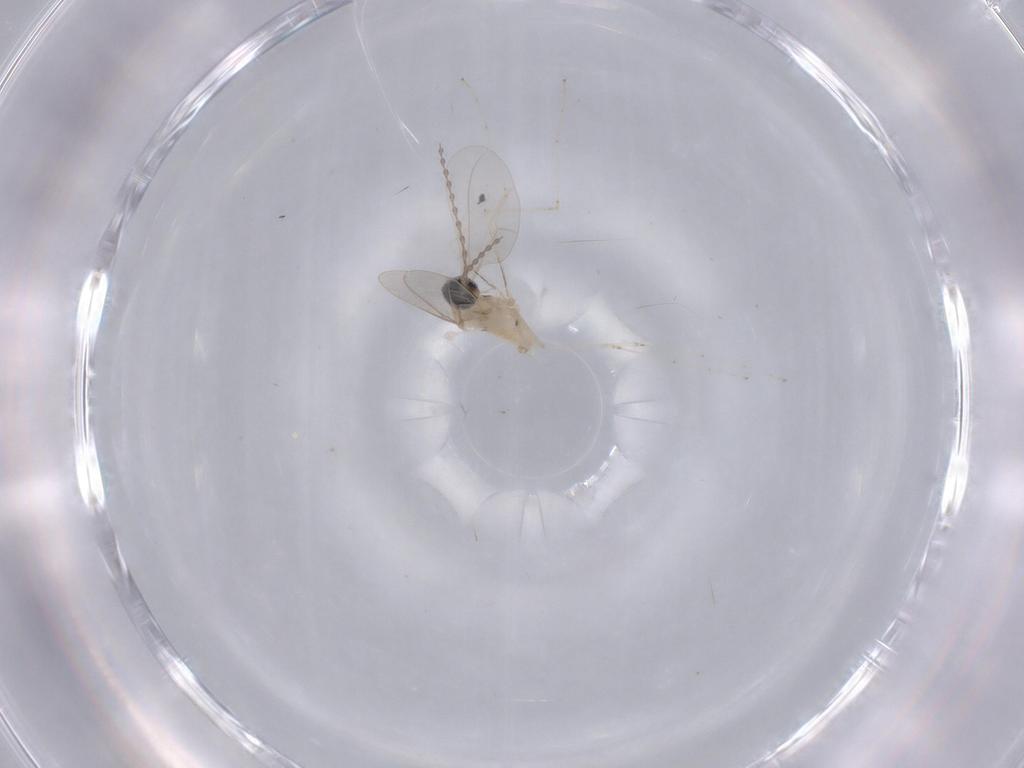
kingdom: Animalia
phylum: Arthropoda
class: Insecta
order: Diptera
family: Cecidomyiidae
